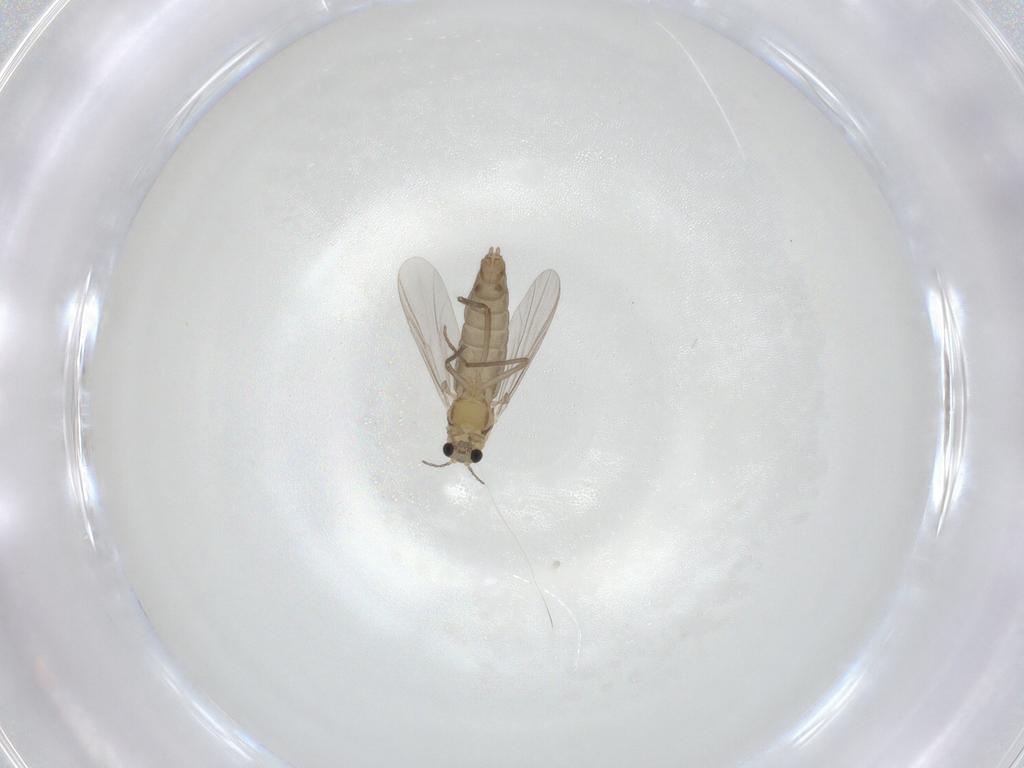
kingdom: Animalia
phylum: Arthropoda
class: Insecta
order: Diptera
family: Chironomidae
